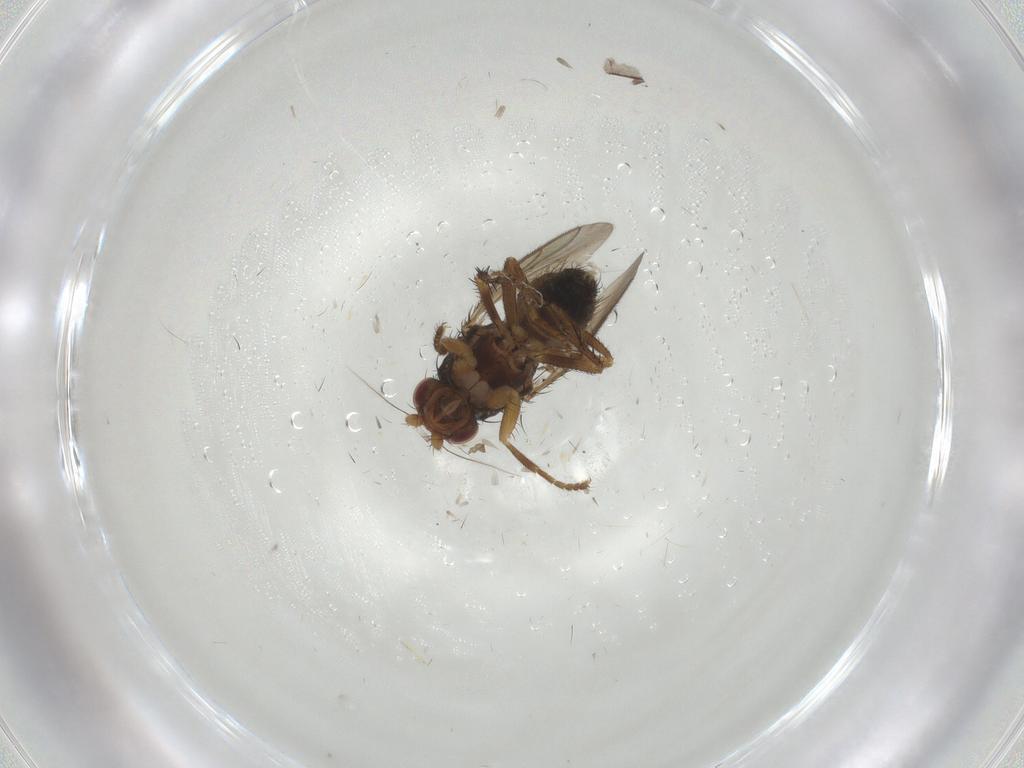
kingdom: Animalia
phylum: Arthropoda
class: Insecta
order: Diptera
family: Sphaeroceridae
